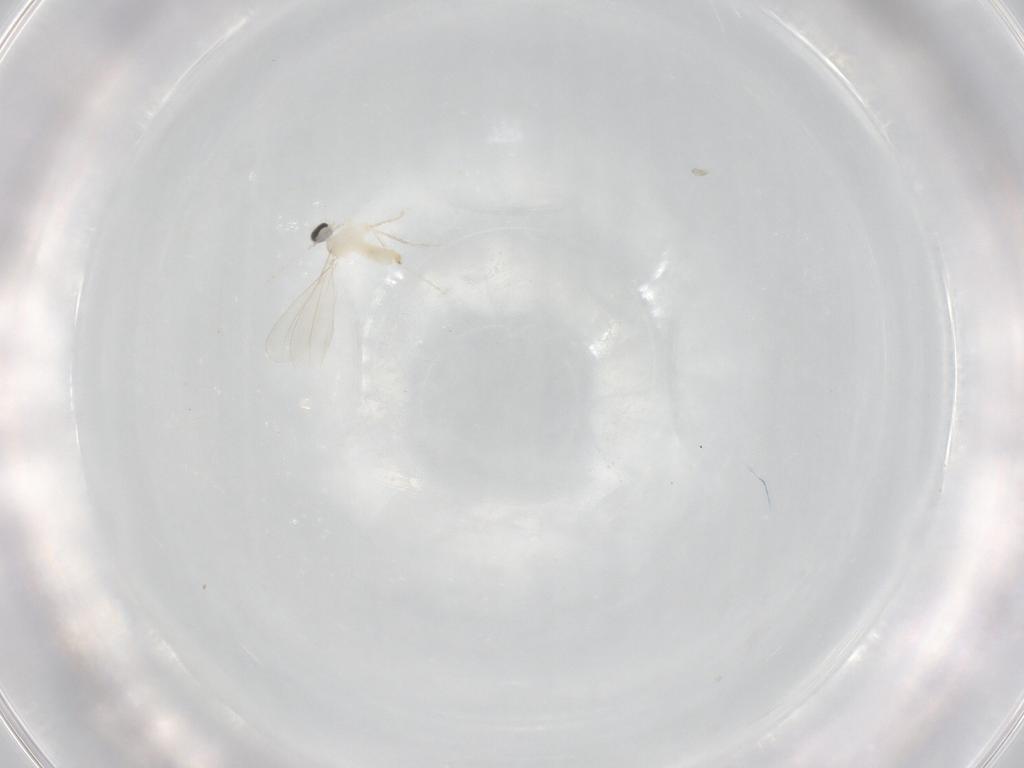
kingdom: Animalia
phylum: Arthropoda
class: Insecta
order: Diptera
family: Cecidomyiidae
